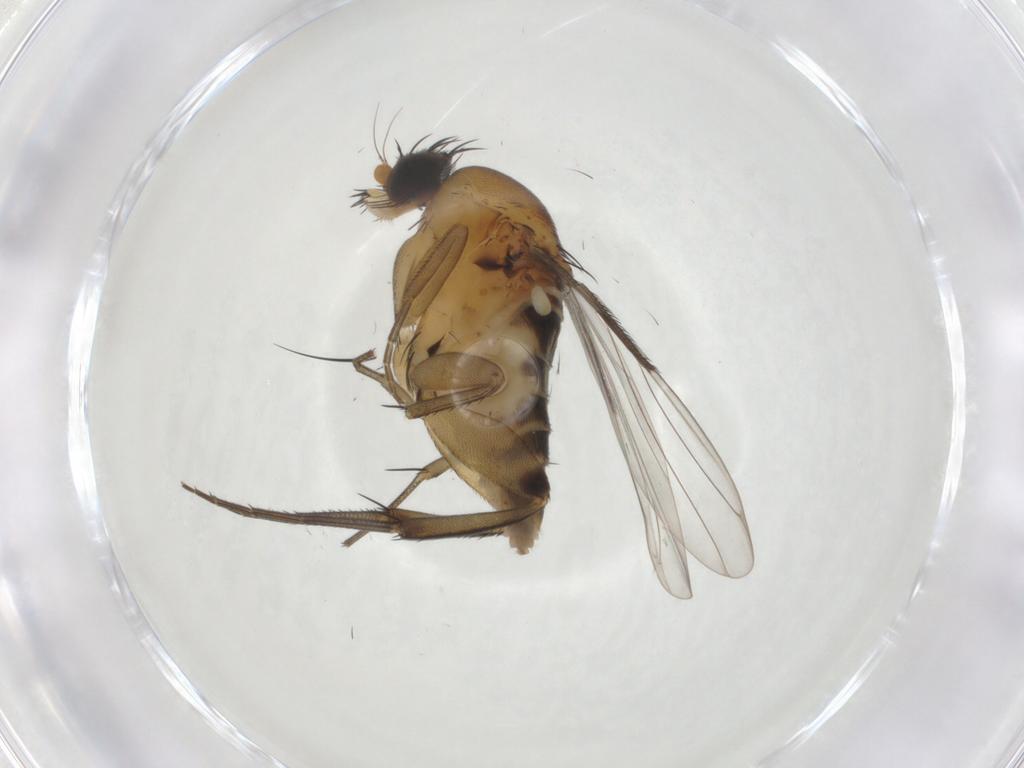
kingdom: Animalia
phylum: Arthropoda
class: Insecta
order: Diptera
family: Phoridae
